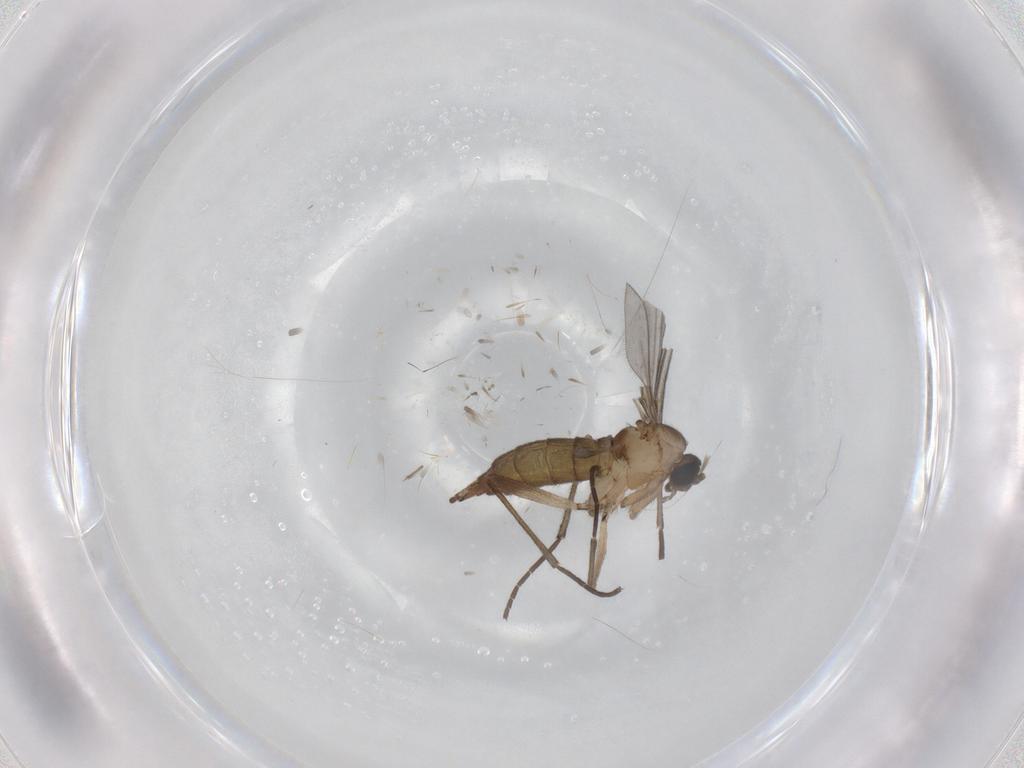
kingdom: Animalia
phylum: Arthropoda
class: Insecta
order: Diptera
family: Sciaridae
